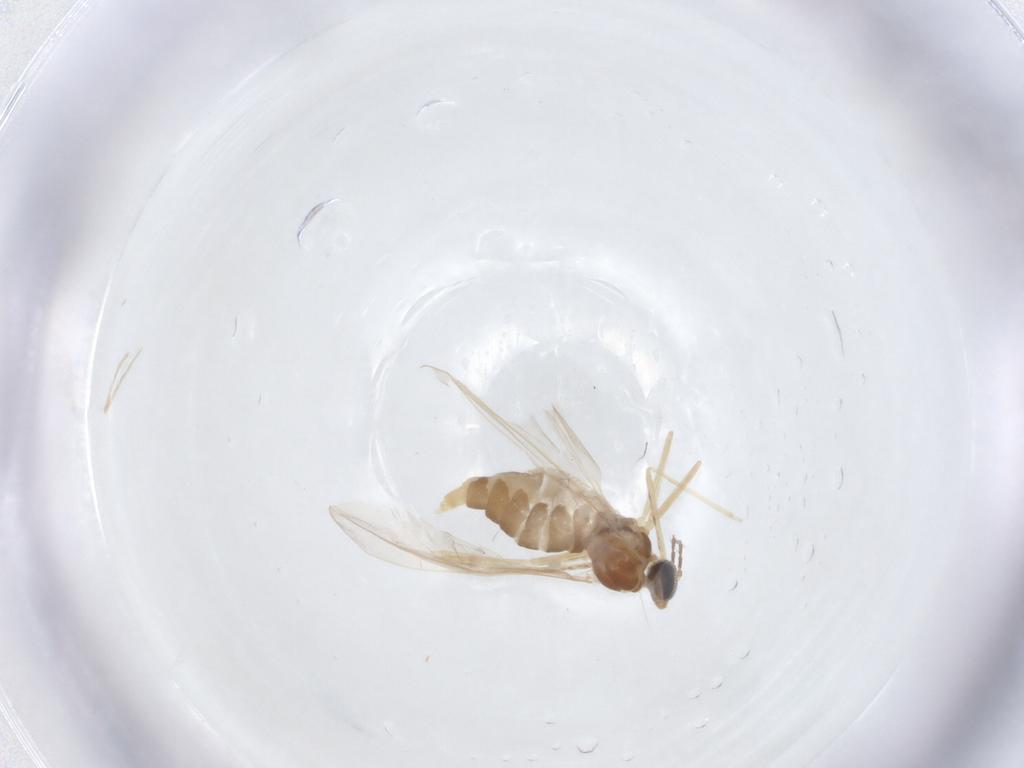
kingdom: Animalia
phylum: Arthropoda
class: Insecta
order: Diptera
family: Cecidomyiidae
